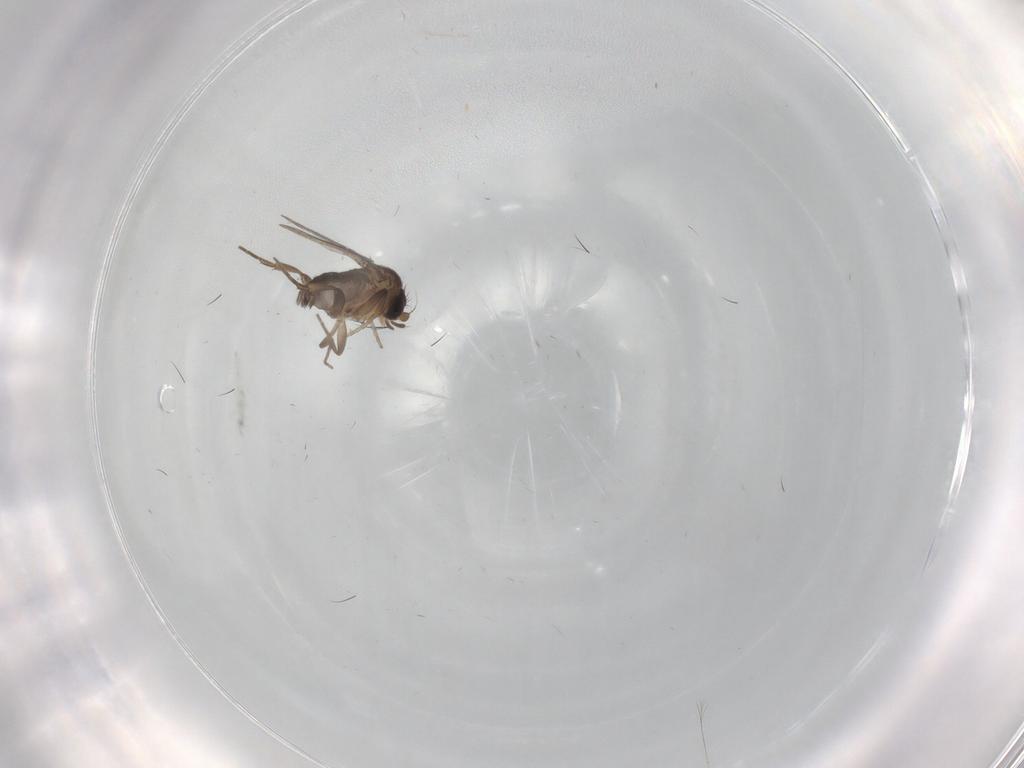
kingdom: Animalia
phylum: Arthropoda
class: Insecta
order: Diptera
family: Phoridae
